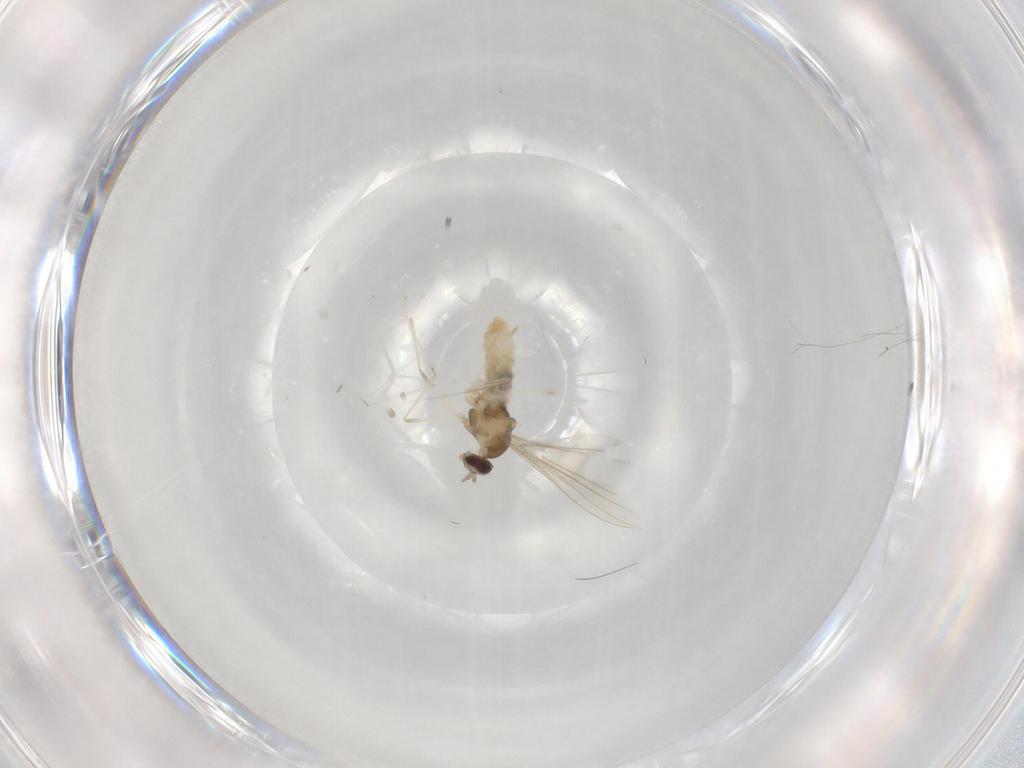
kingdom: Animalia
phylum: Arthropoda
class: Insecta
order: Diptera
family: Cecidomyiidae
